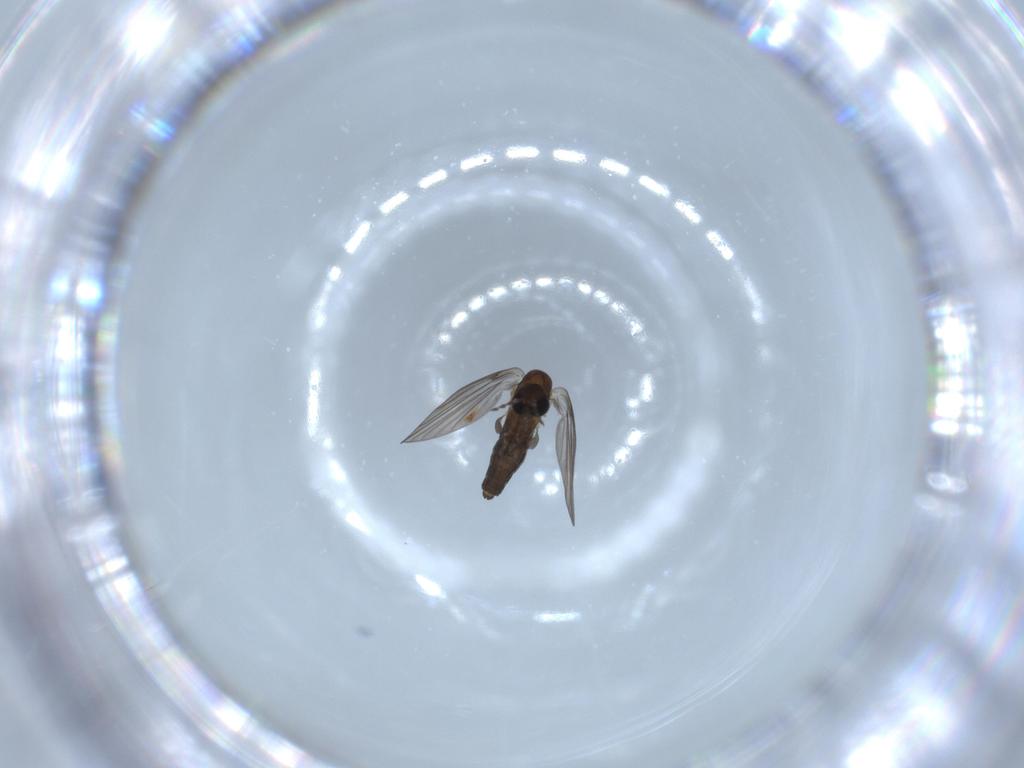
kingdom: Animalia
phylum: Arthropoda
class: Insecta
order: Diptera
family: Psychodidae
